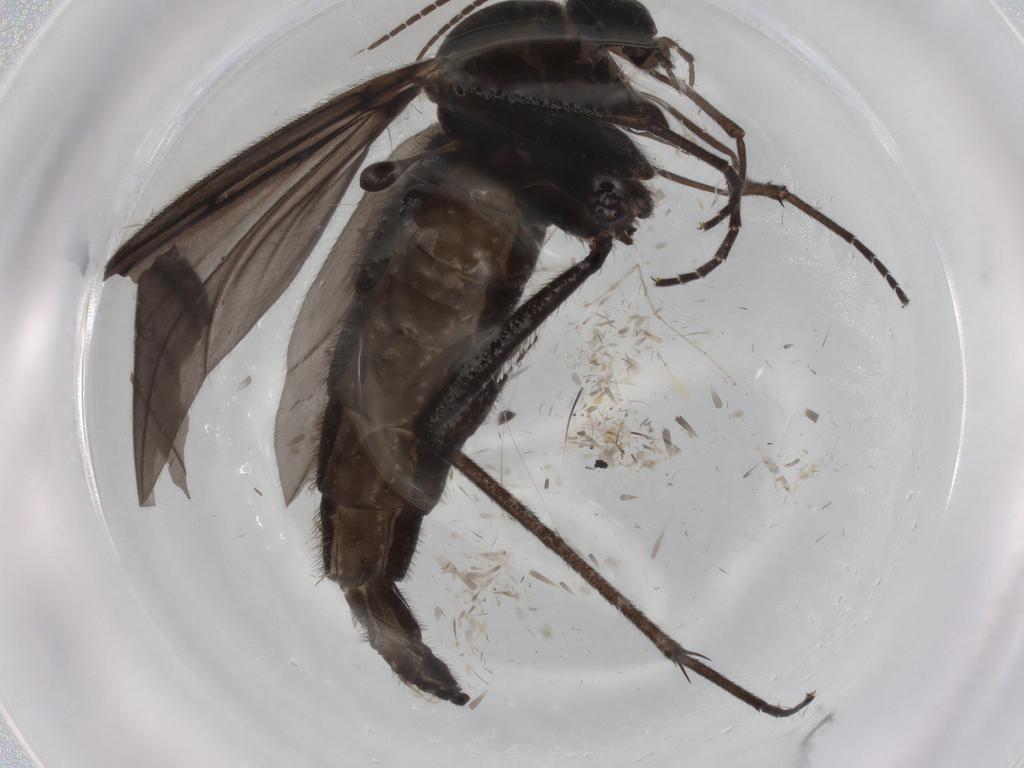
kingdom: Animalia
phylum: Arthropoda
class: Insecta
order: Diptera
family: Sciaridae
